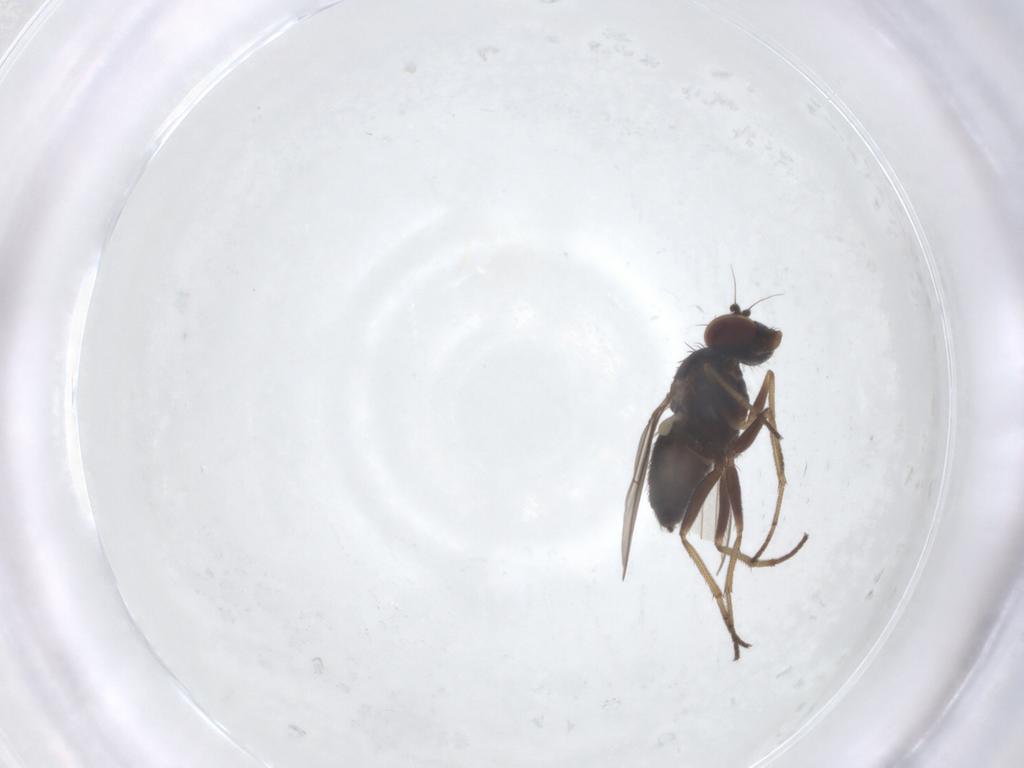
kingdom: Animalia
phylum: Arthropoda
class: Insecta
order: Diptera
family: Dolichopodidae
